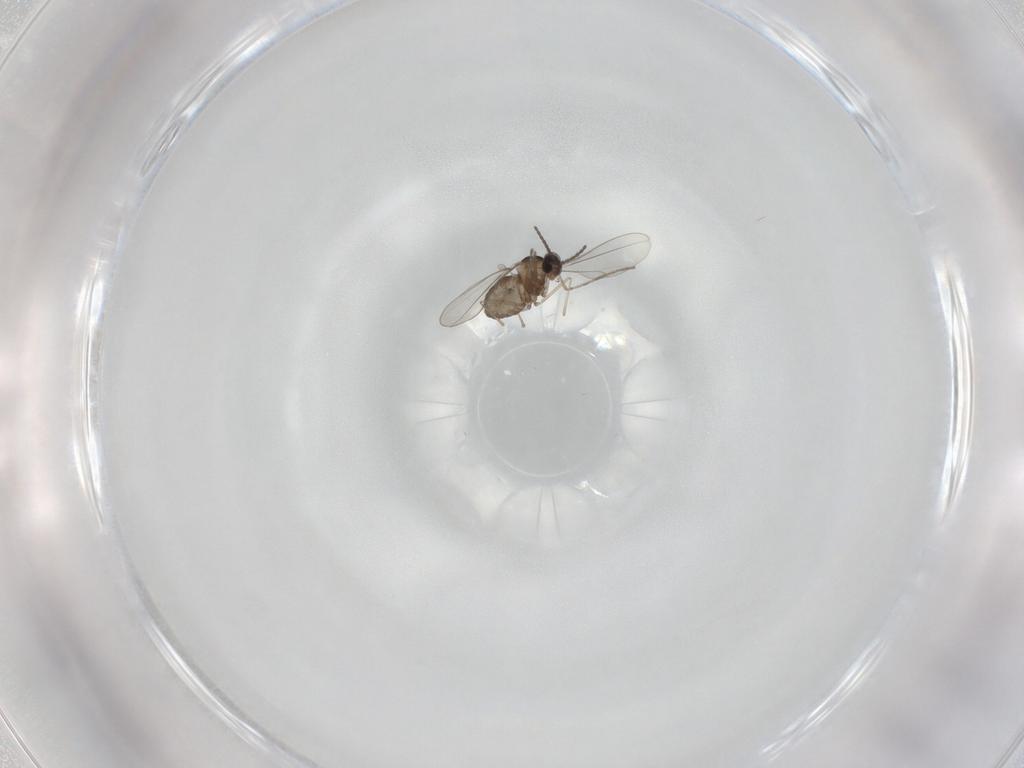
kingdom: Animalia
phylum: Arthropoda
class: Insecta
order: Diptera
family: Cecidomyiidae
